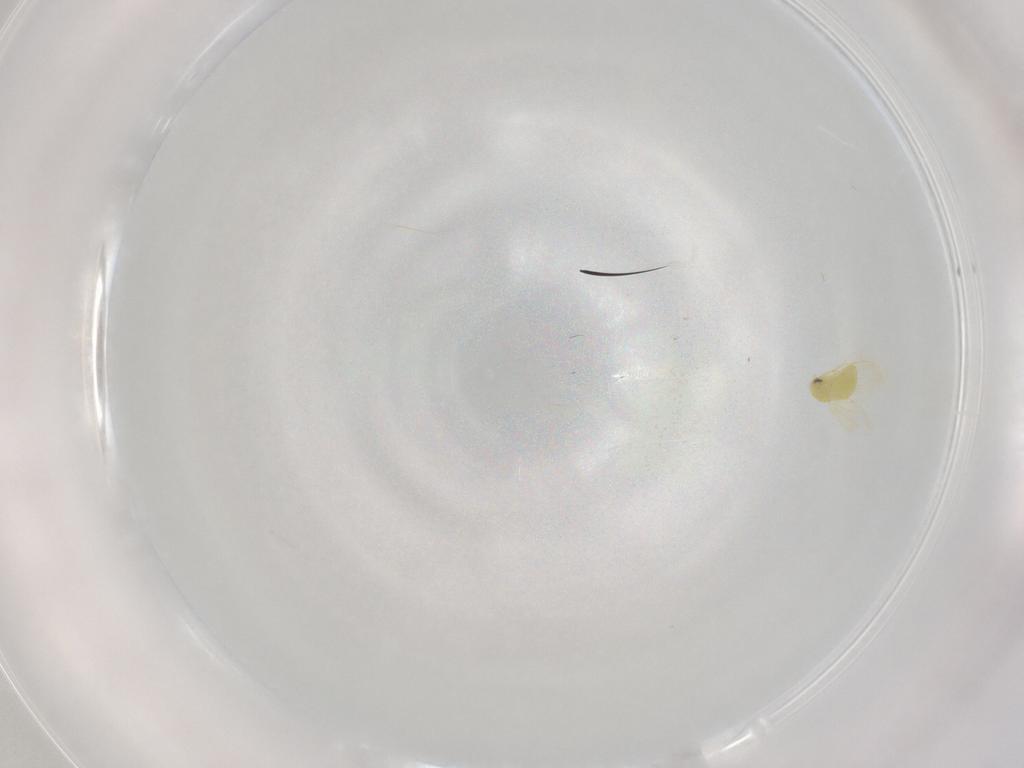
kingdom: Animalia
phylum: Arthropoda
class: Insecta
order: Hemiptera
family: Aleyrodidae
